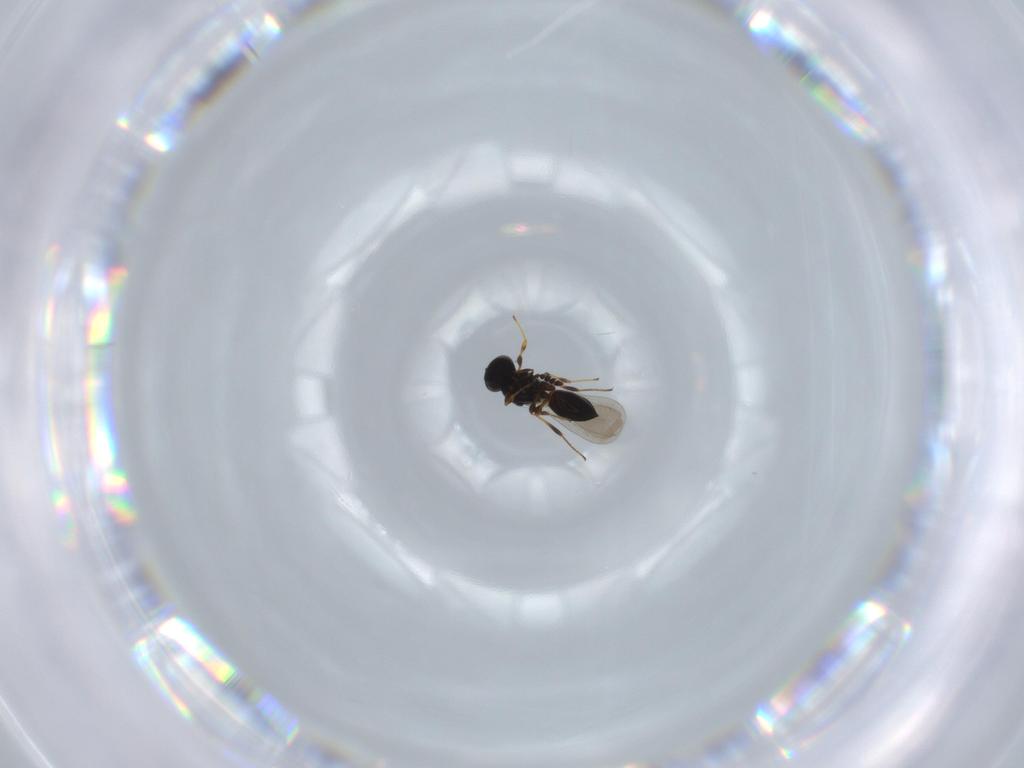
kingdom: Animalia
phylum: Arthropoda
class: Insecta
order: Hymenoptera
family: Platygastridae
